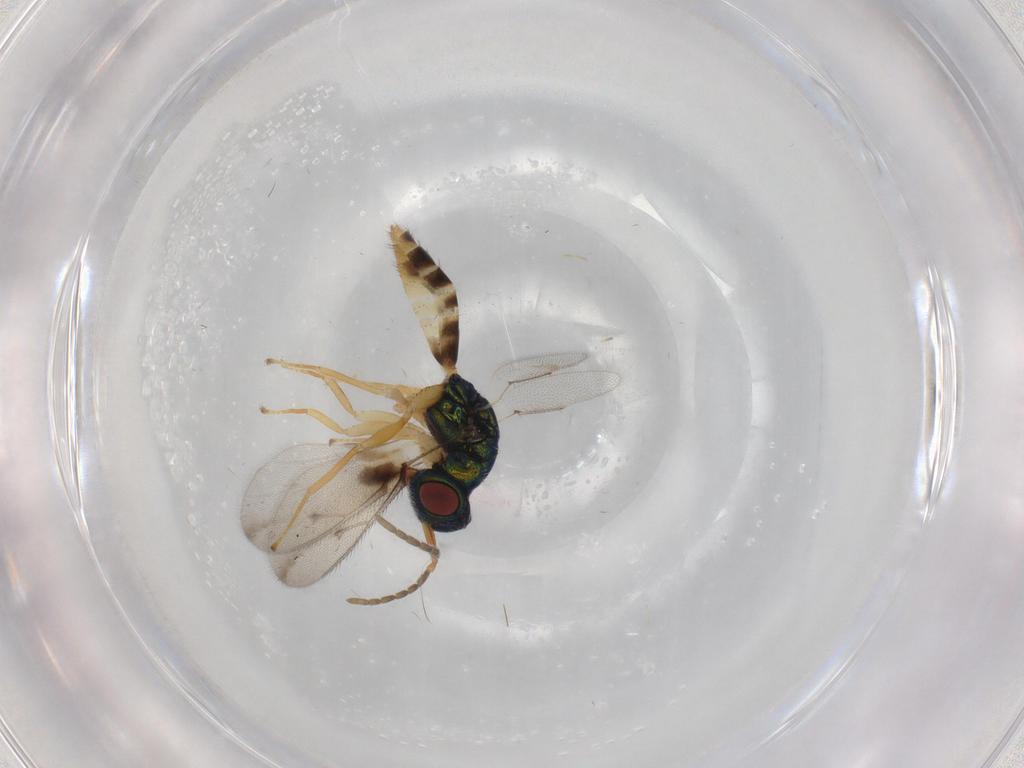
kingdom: Animalia
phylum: Arthropoda
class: Insecta
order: Hymenoptera
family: Pteromalidae
